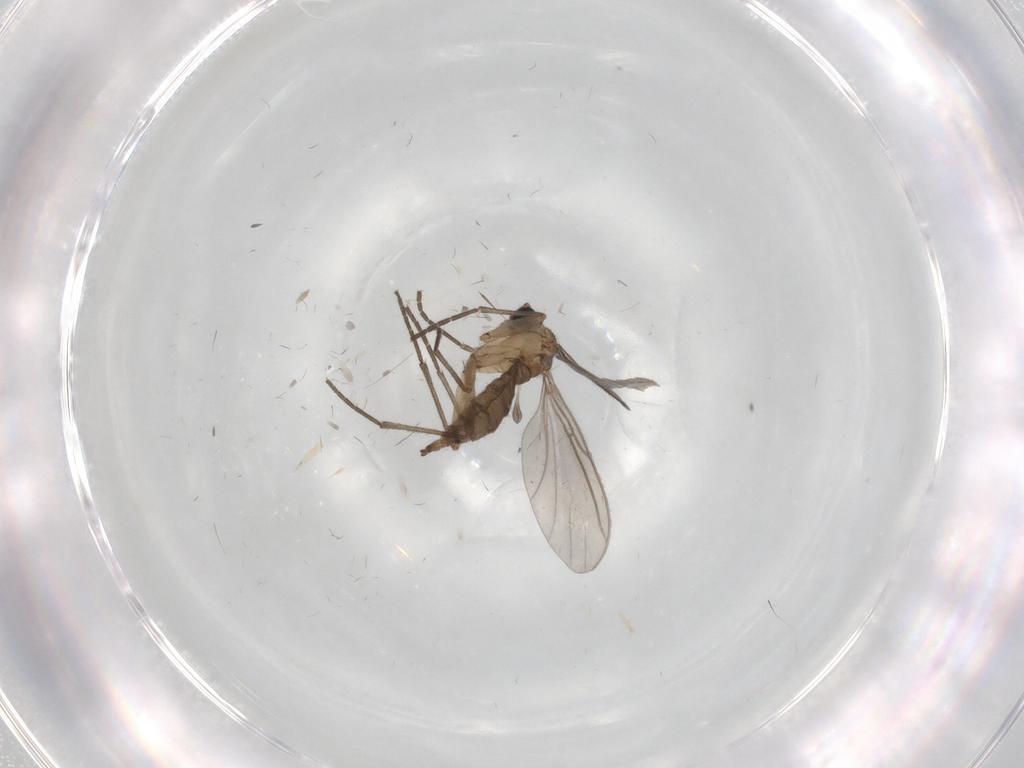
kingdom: Animalia
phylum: Arthropoda
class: Insecta
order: Diptera
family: Sciaridae
